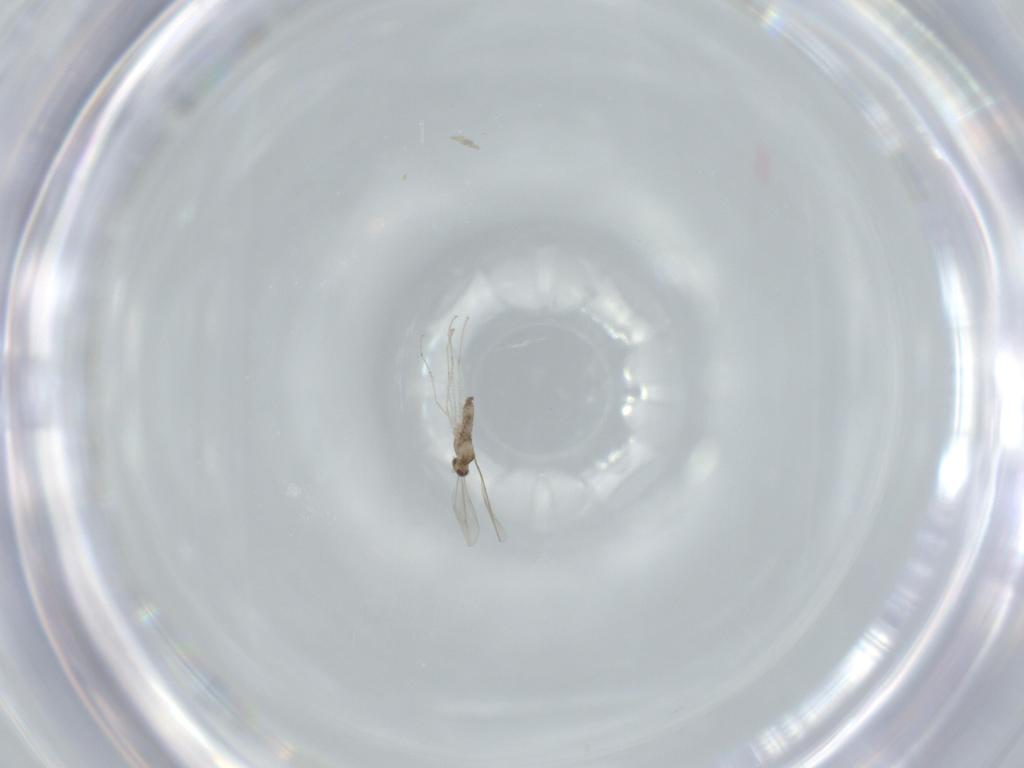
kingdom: Animalia
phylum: Arthropoda
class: Insecta
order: Diptera
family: Cecidomyiidae
